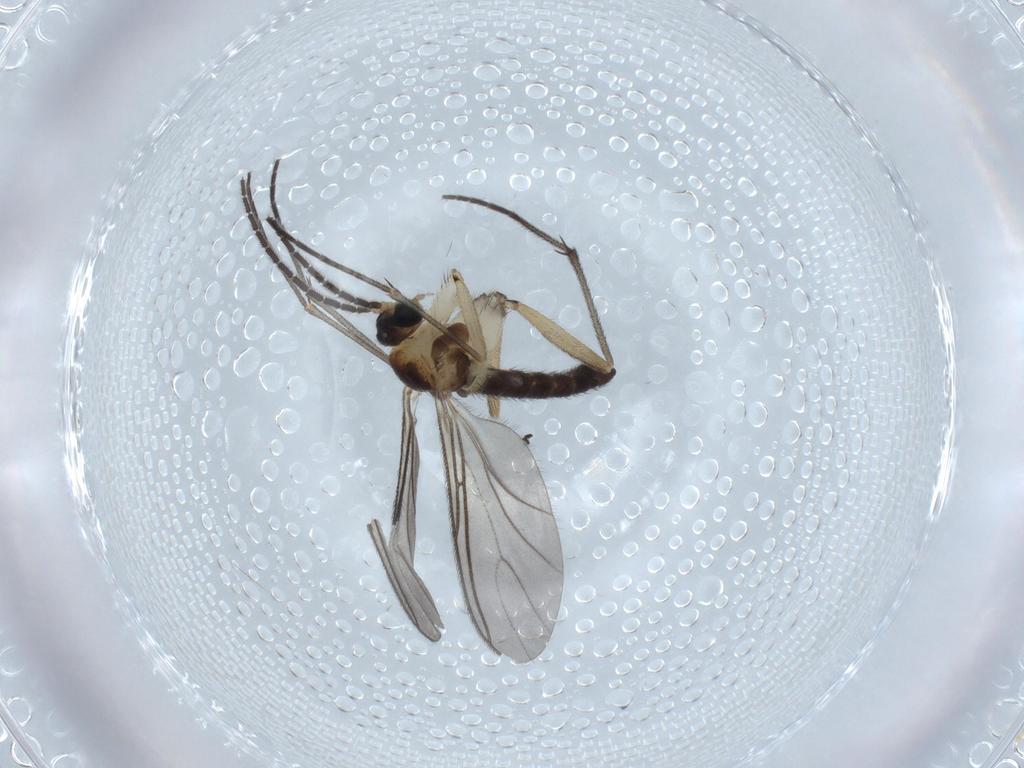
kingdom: Animalia
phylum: Arthropoda
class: Insecta
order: Diptera
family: Sciaridae
